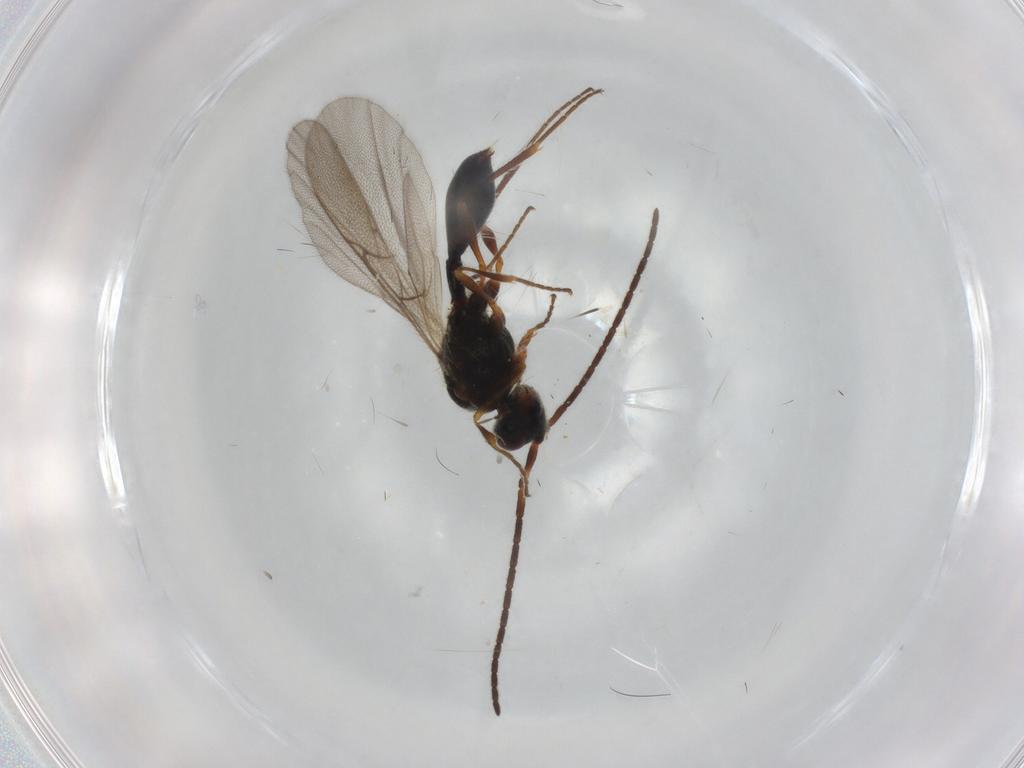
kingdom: Animalia
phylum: Arthropoda
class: Insecta
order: Hymenoptera
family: Diapriidae
